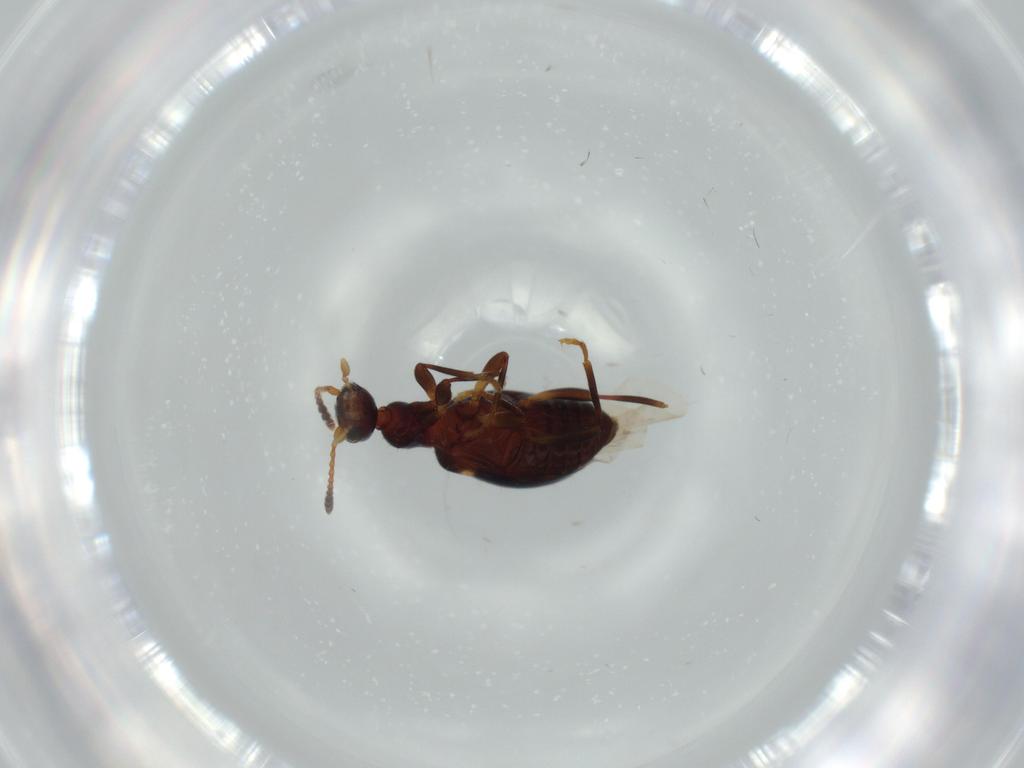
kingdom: Animalia
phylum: Arthropoda
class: Insecta
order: Coleoptera
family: Anthicidae
